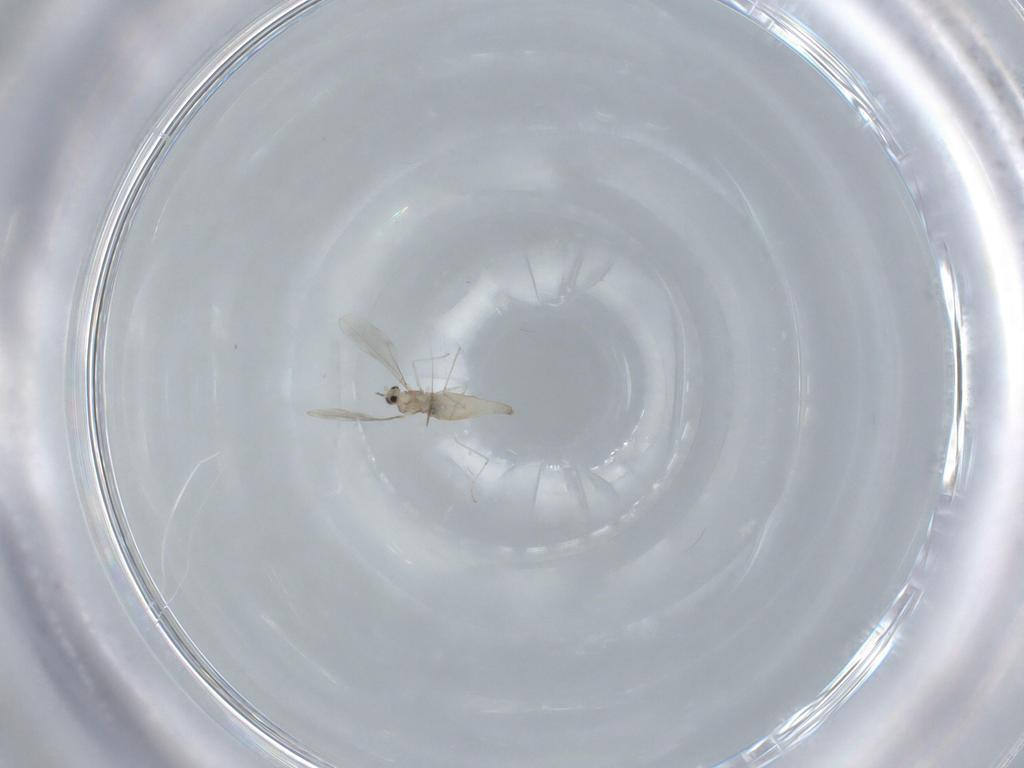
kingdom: Animalia
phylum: Arthropoda
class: Insecta
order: Diptera
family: Cecidomyiidae
